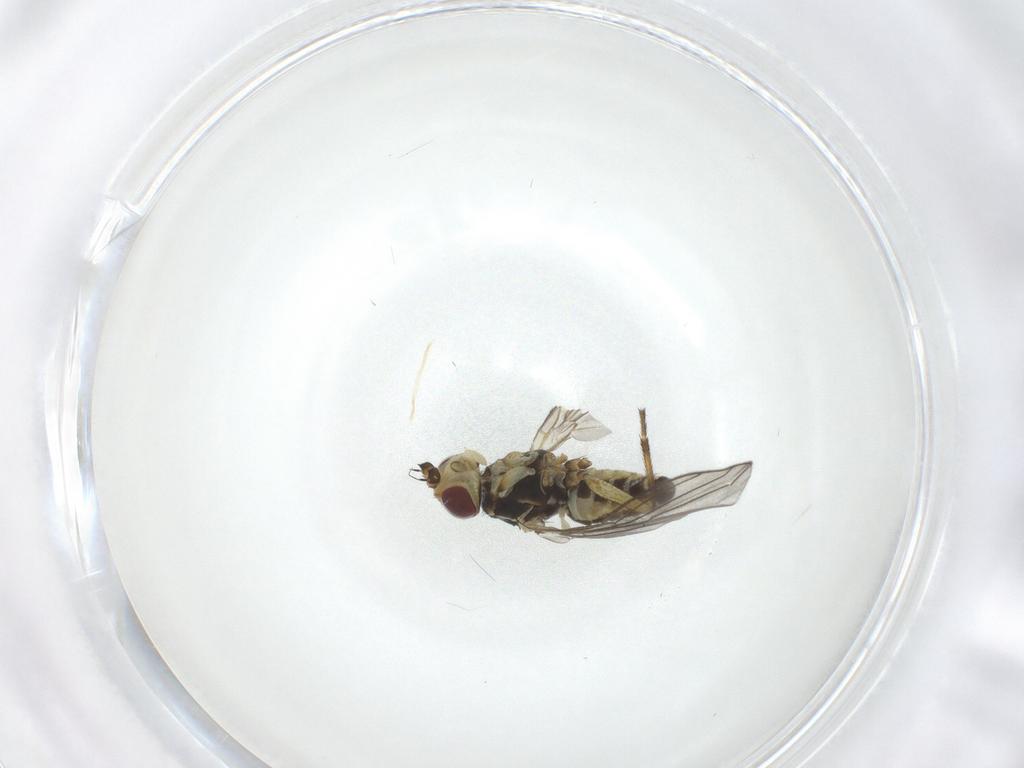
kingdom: Animalia
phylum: Arthropoda
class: Insecta
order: Diptera
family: Agromyzidae
